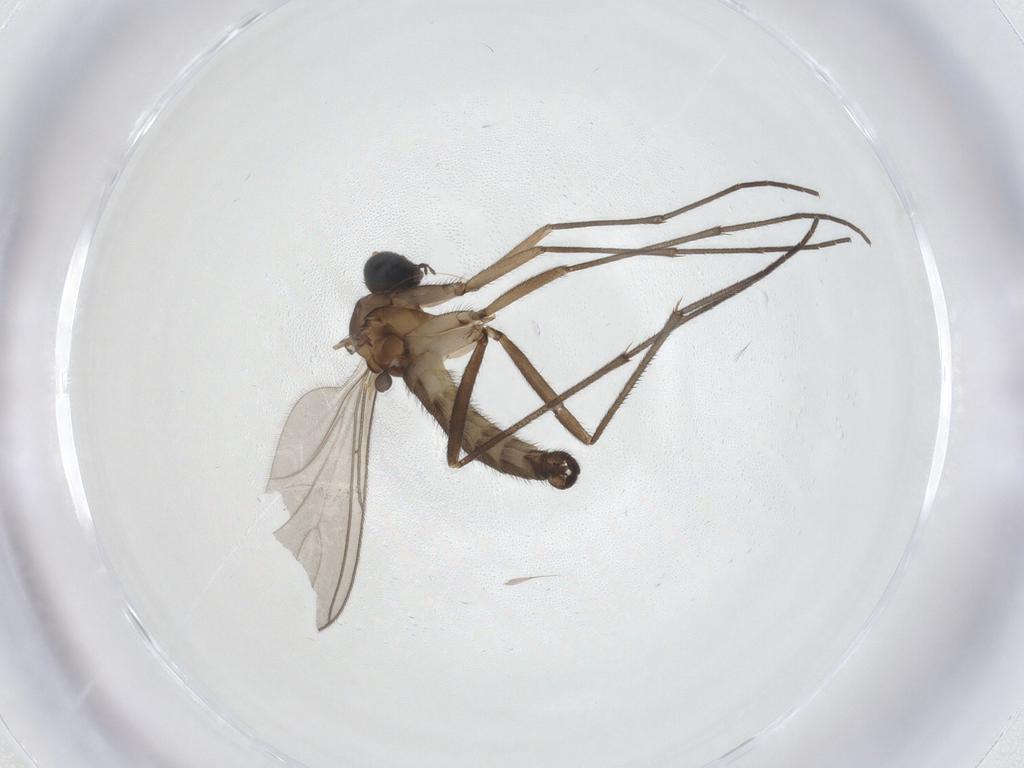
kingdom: Animalia
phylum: Arthropoda
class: Insecta
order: Diptera
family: Sciaridae
